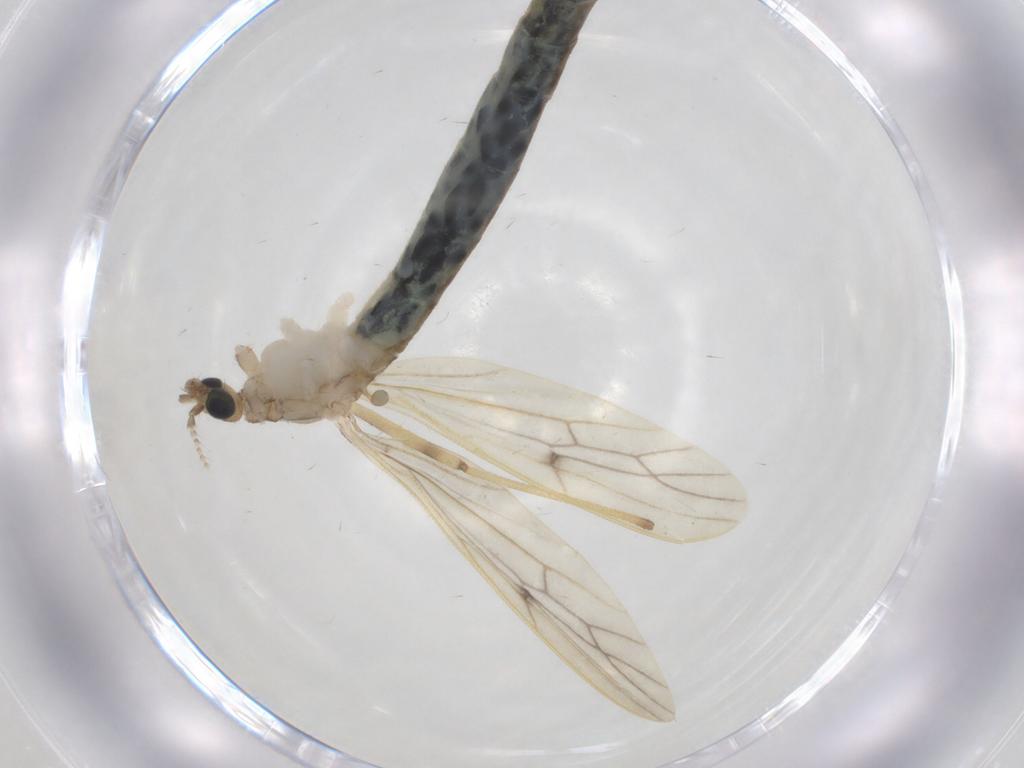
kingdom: Animalia
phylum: Arthropoda
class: Insecta
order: Diptera
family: Limoniidae
